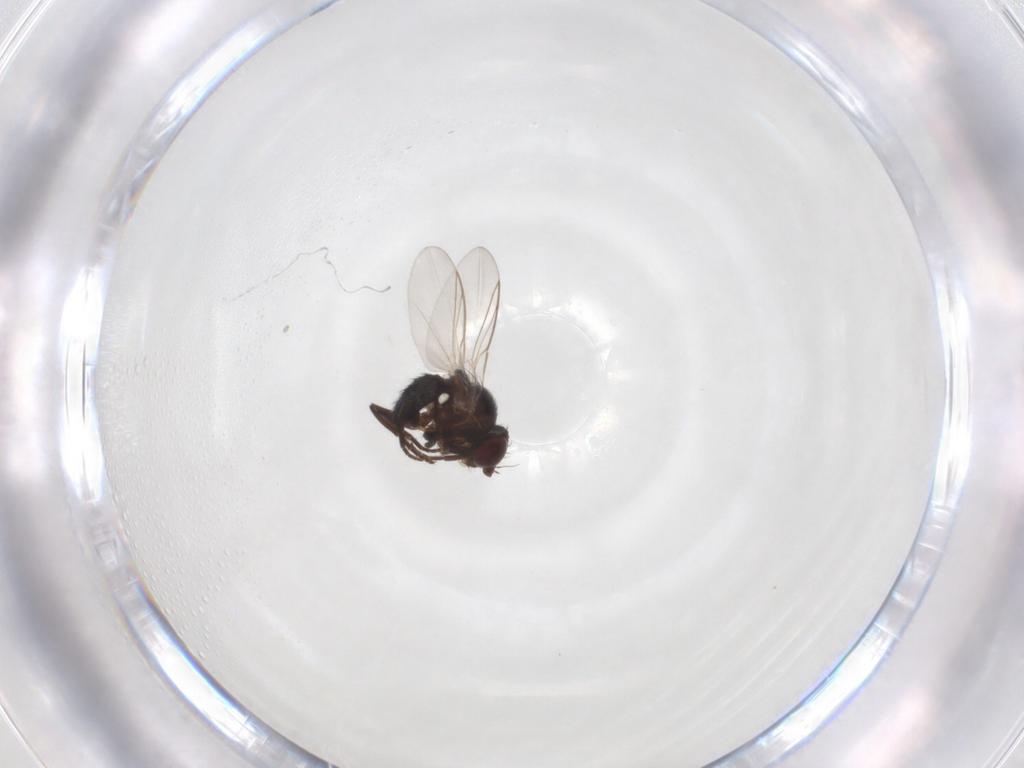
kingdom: Animalia
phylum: Arthropoda
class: Insecta
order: Diptera
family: Agromyzidae
